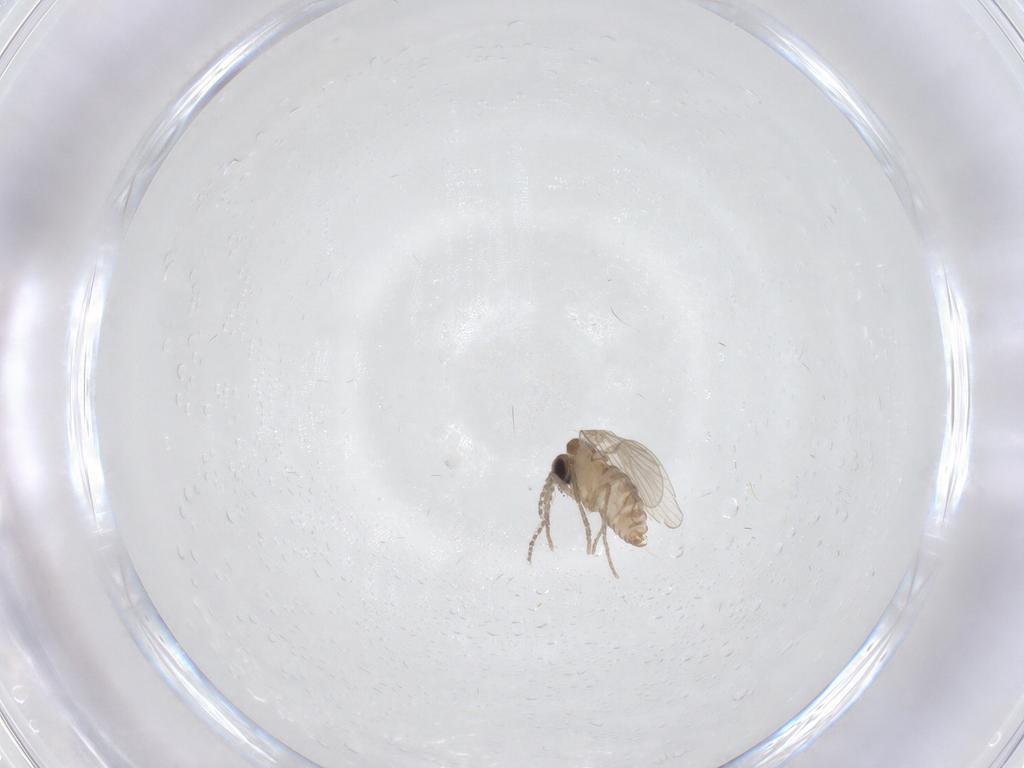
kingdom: Animalia
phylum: Arthropoda
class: Insecta
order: Diptera
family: Psychodidae
